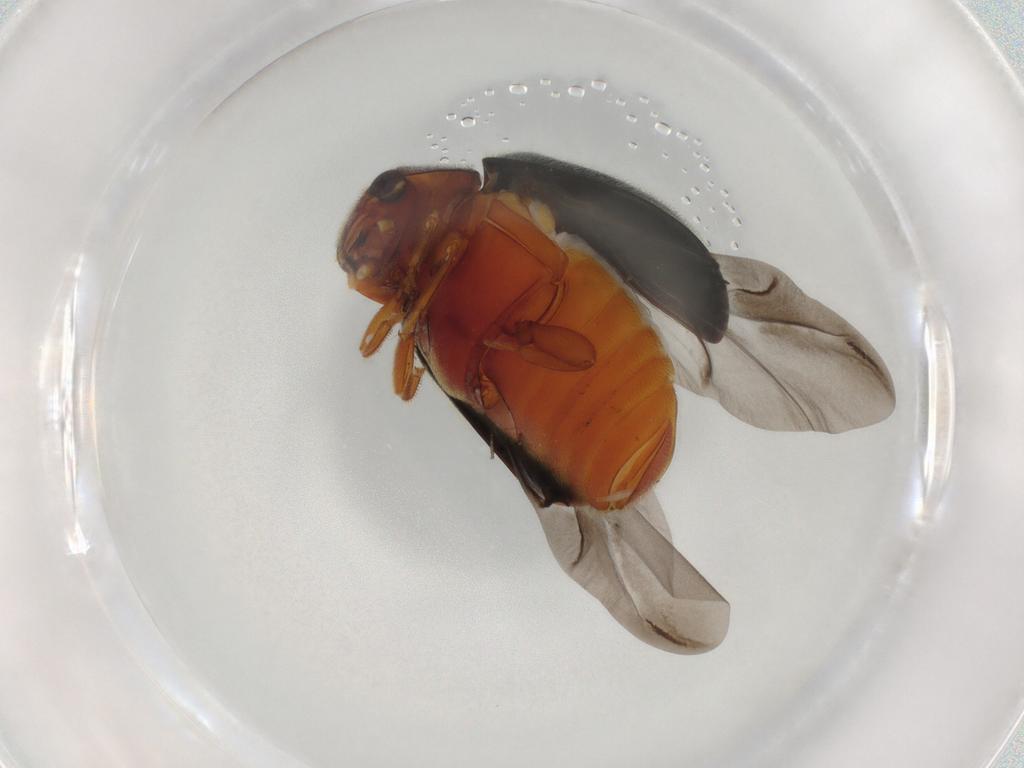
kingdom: Animalia
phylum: Arthropoda
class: Insecta
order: Coleoptera
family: Coccinellidae
